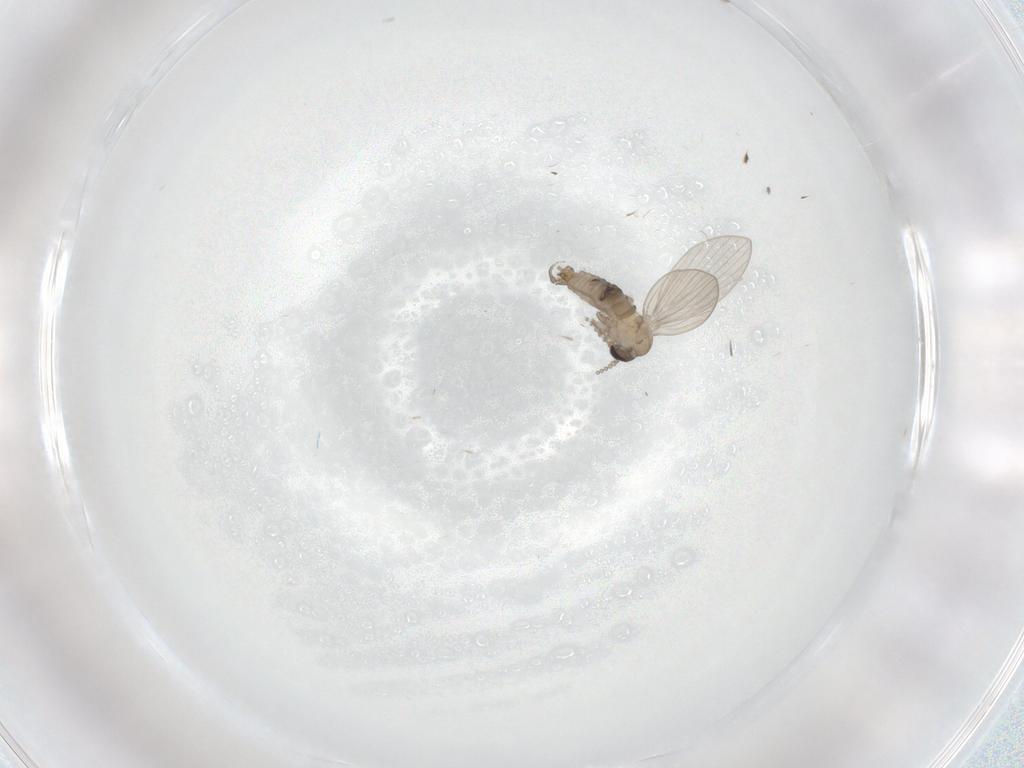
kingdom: Animalia
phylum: Arthropoda
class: Insecta
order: Diptera
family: Psychodidae
